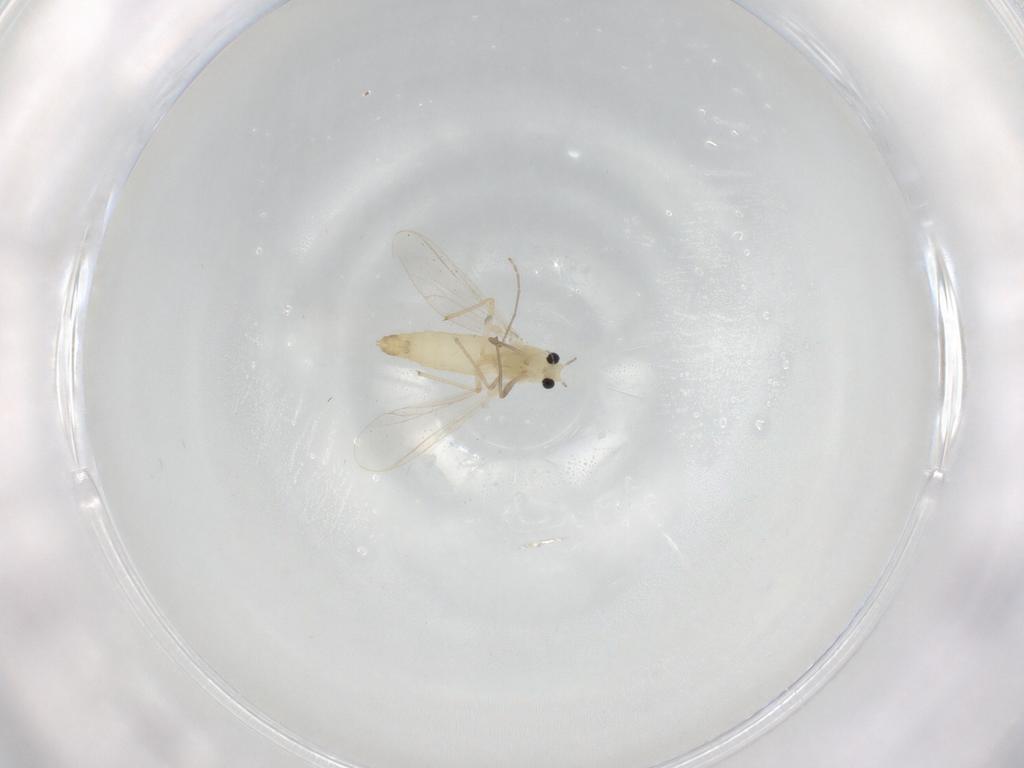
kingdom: Animalia
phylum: Arthropoda
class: Insecta
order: Diptera
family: Chironomidae
